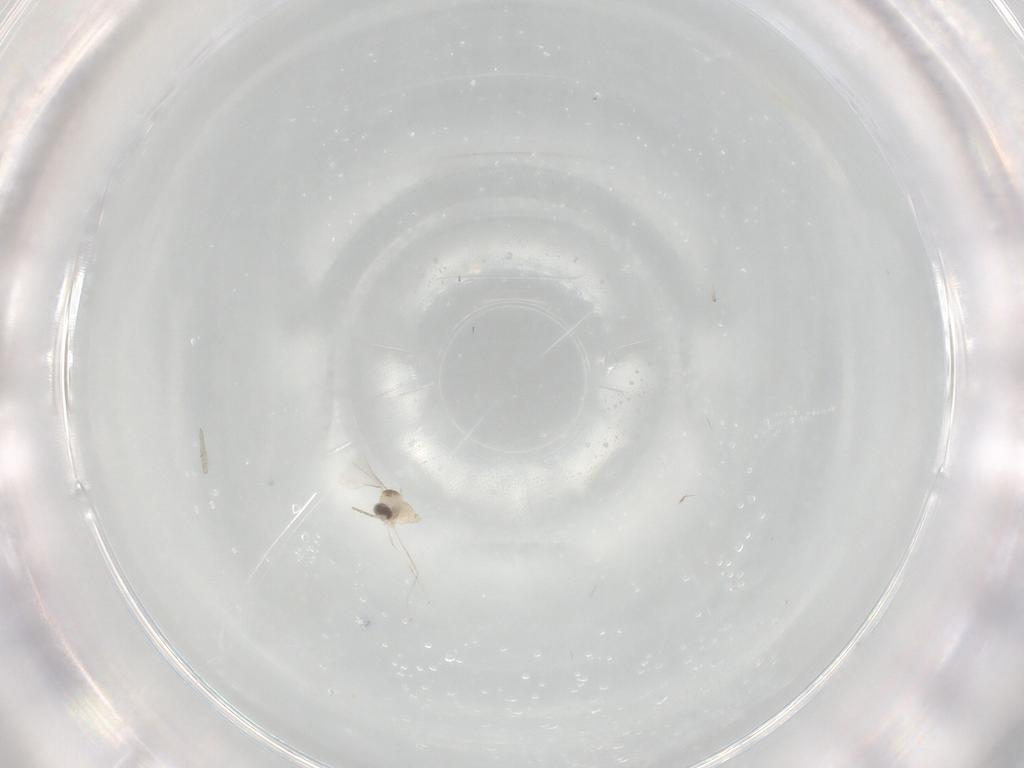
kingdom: Animalia
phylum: Arthropoda
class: Insecta
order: Diptera
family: Cecidomyiidae
